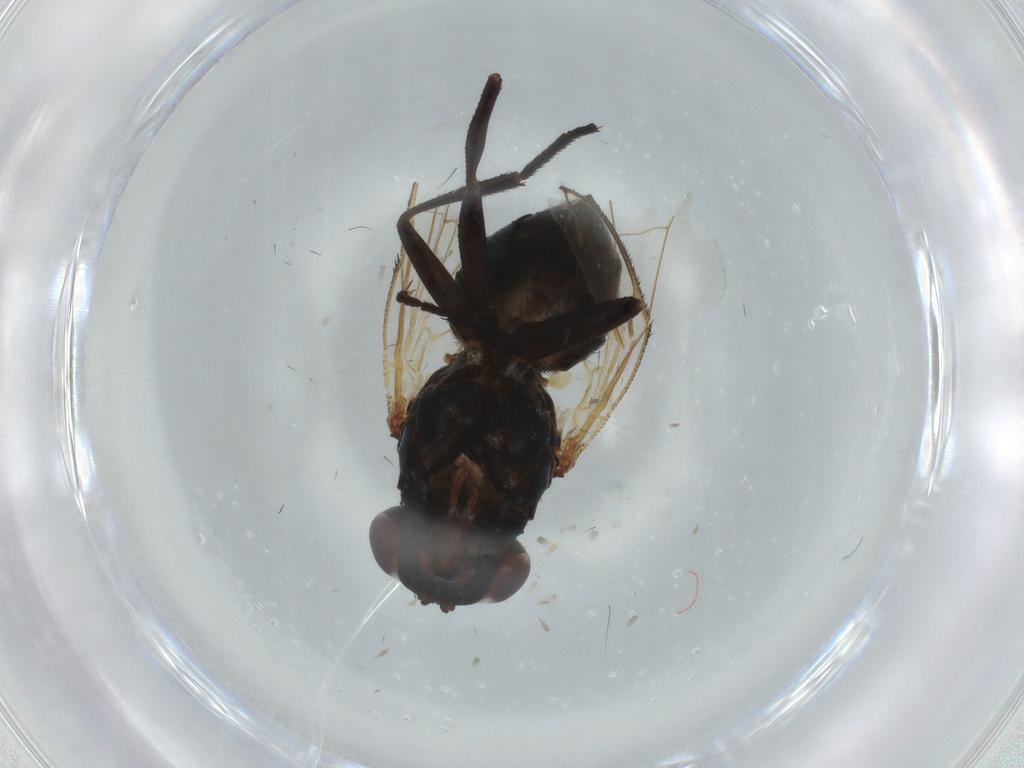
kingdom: Animalia
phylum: Arthropoda
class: Insecta
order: Diptera
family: Fannia
